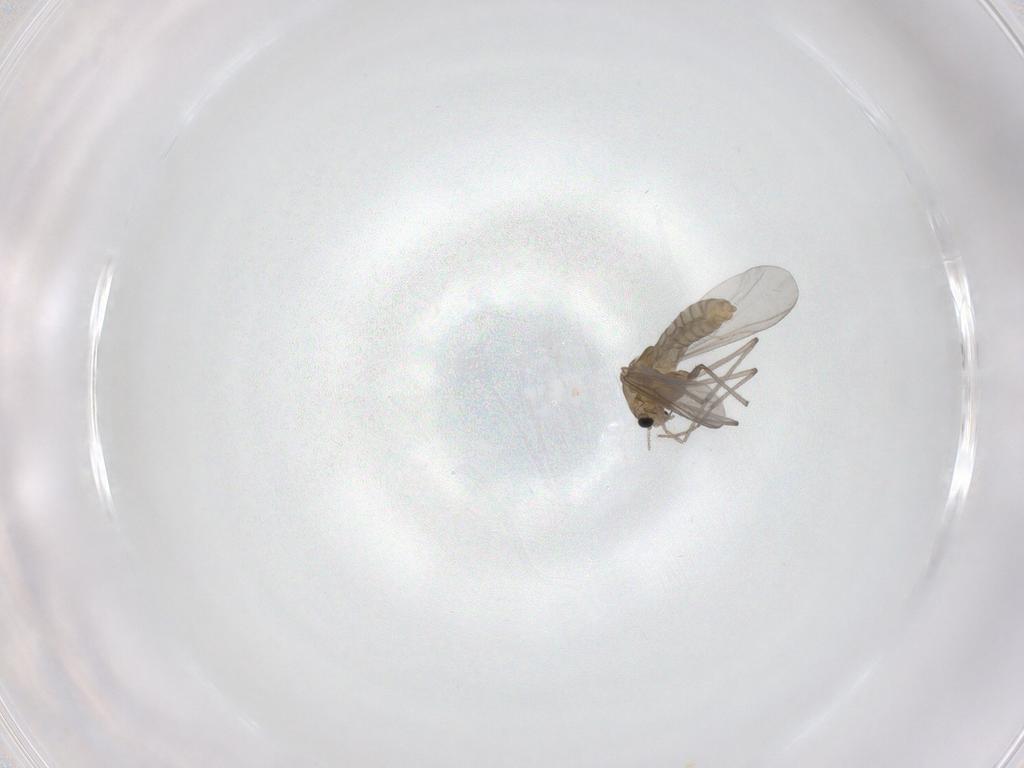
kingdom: Animalia
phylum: Arthropoda
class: Insecta
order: Diptera
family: Chironomidae
